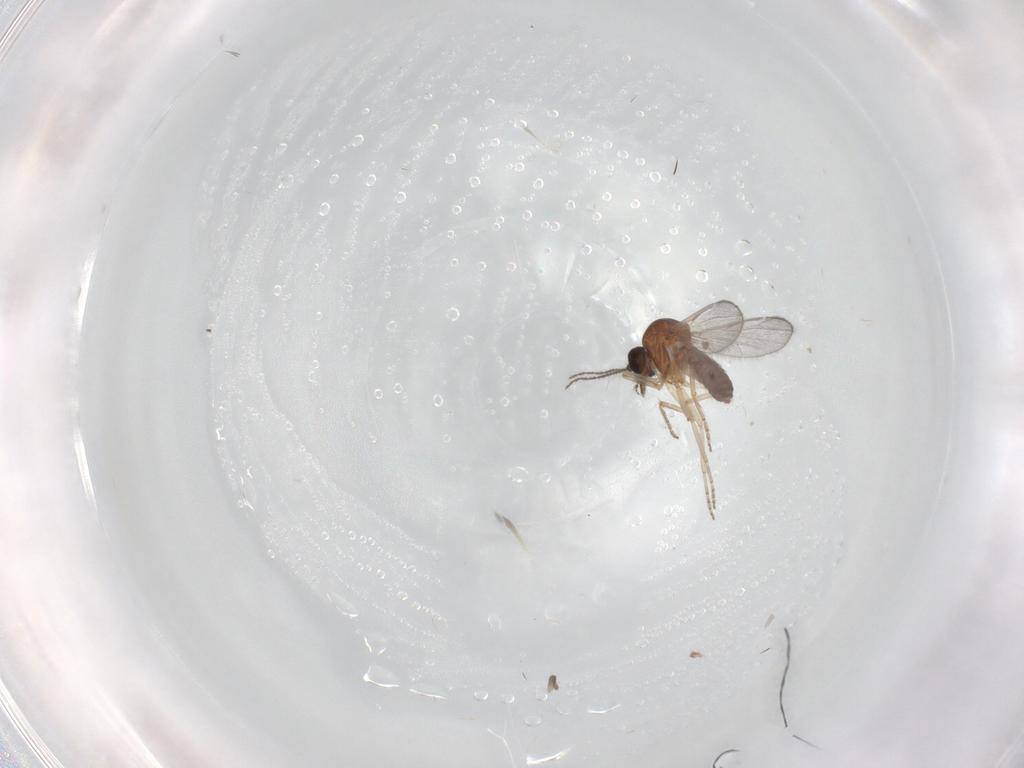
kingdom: Animalia
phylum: Arthropoda
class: Insecta
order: Diptera
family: Ceratopogonidae
